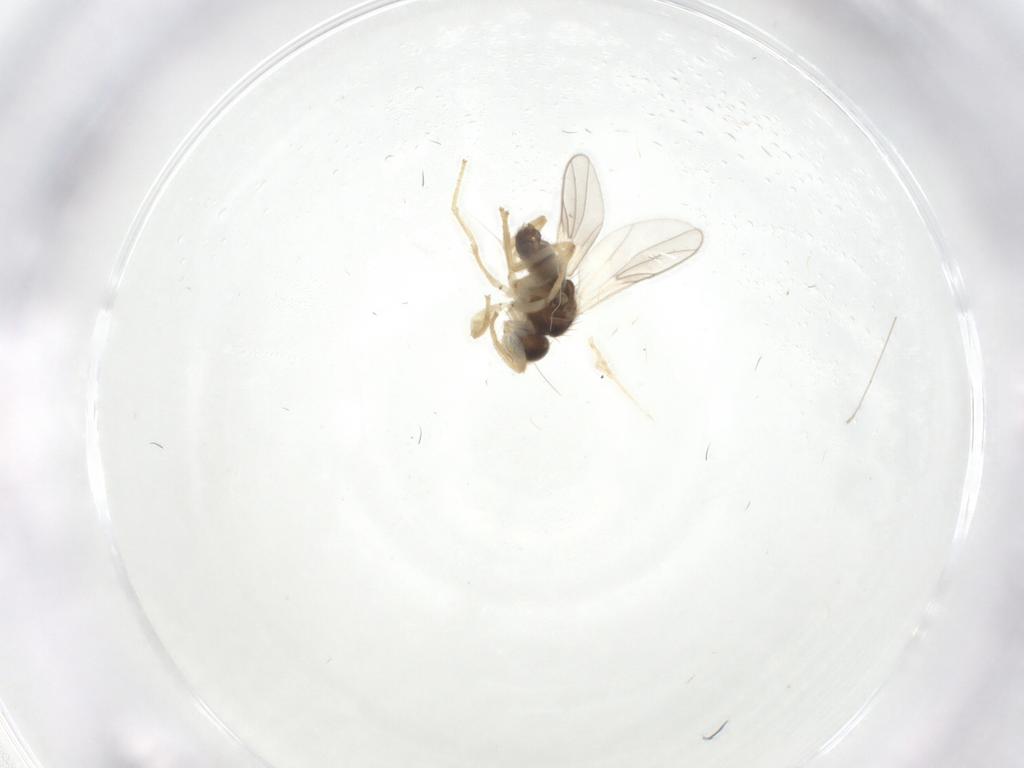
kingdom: Animalia
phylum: Arthropoda
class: Insecta
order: Diptera
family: Hybotidae
